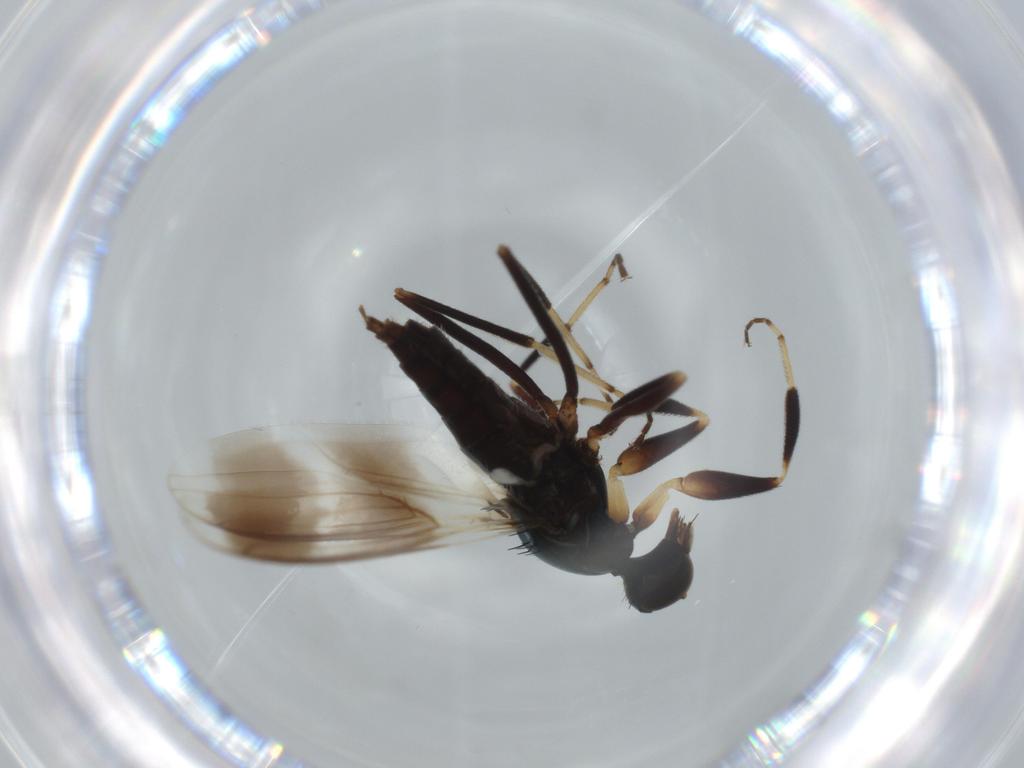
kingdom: Animalia
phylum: Arthropoda
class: Insecta
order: Diptera
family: Hybotidae
